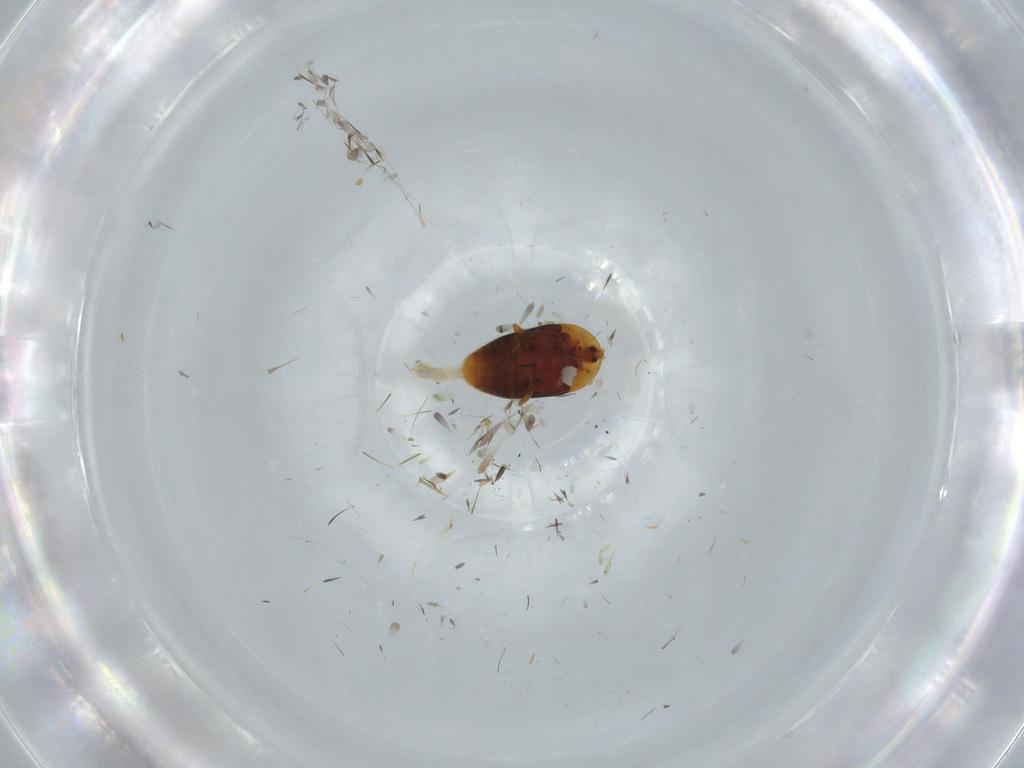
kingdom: Animalia
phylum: Arthropoda
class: Insecta
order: Coleoptera
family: Corylophidae
